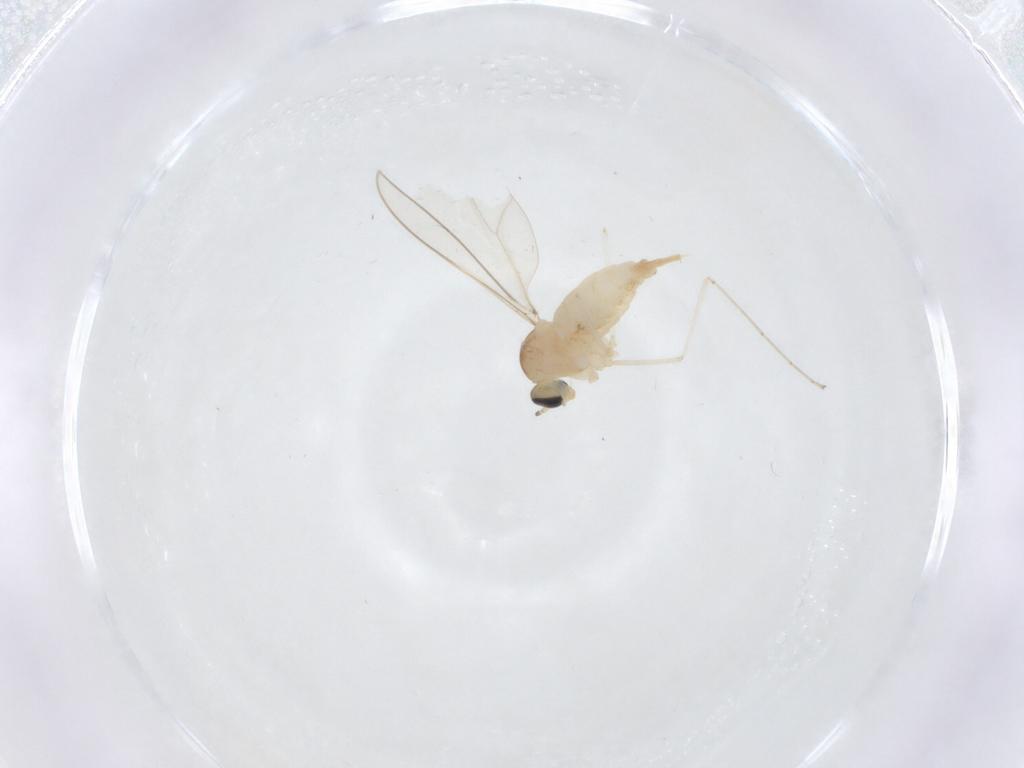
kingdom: Animalia
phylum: Arthropoda
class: Insecta
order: Diptera
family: Cecidomyiidae
